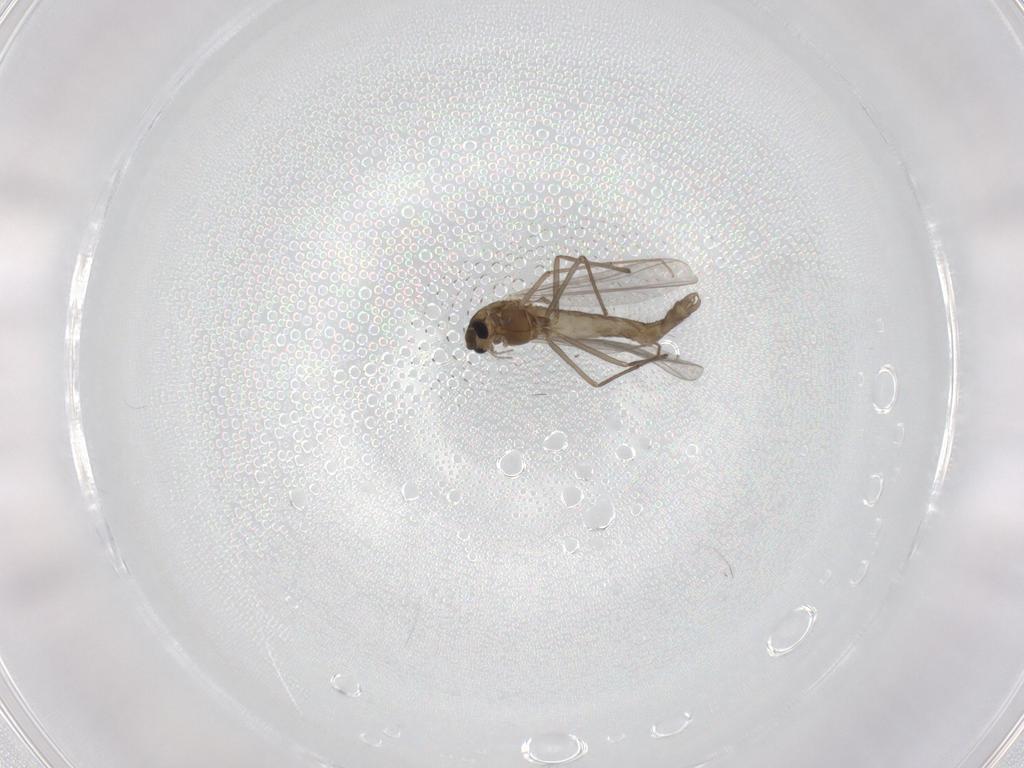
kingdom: Animalia
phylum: Arthropoda
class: Insecta
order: Diptera
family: Chironomidae
